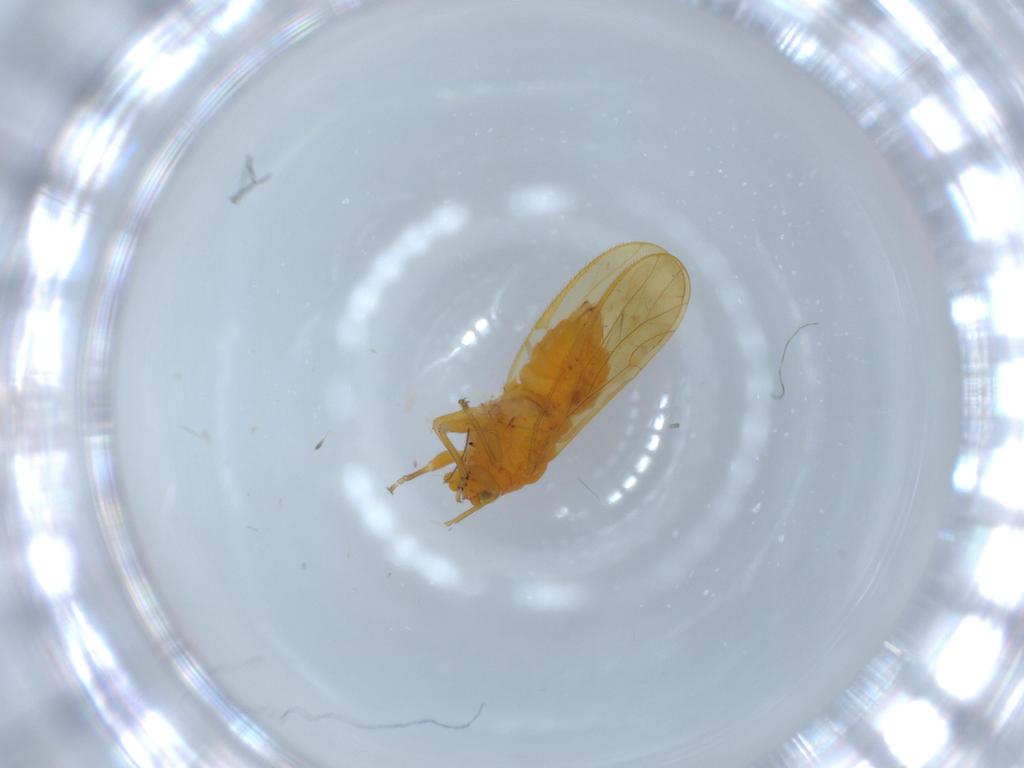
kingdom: Animalia
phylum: Arthropoda
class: Insecta
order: Hemiptera
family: Psyllidae
